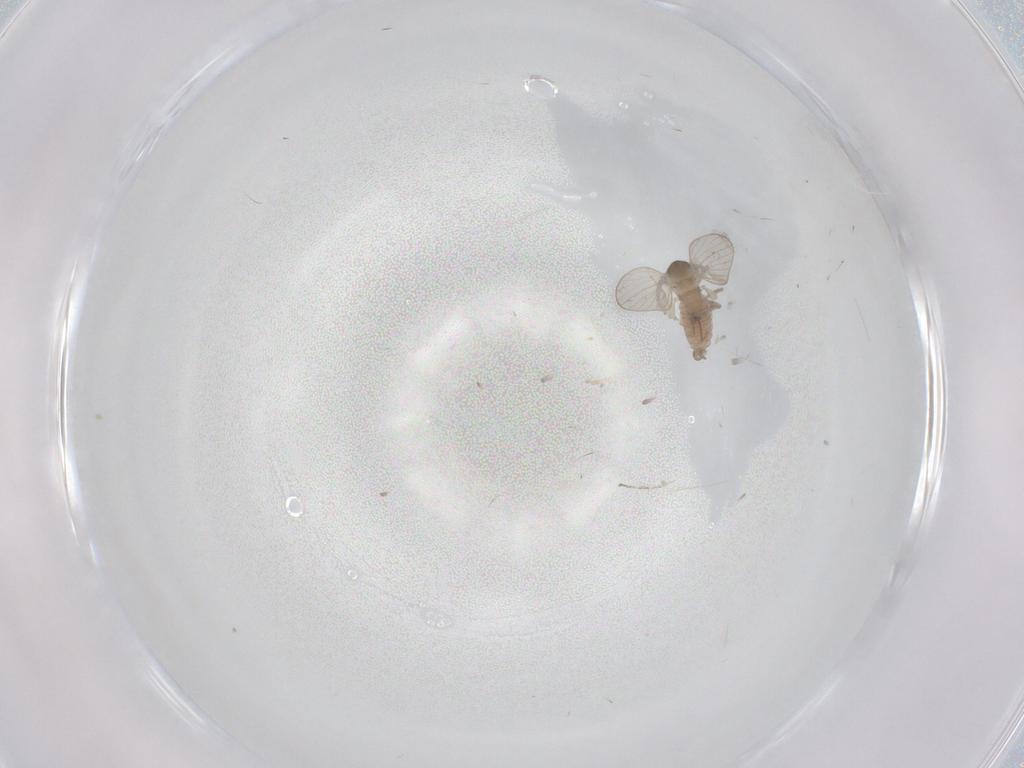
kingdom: Animalia
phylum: Arthropoda
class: Insecta
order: Diptera
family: Psychodidae
